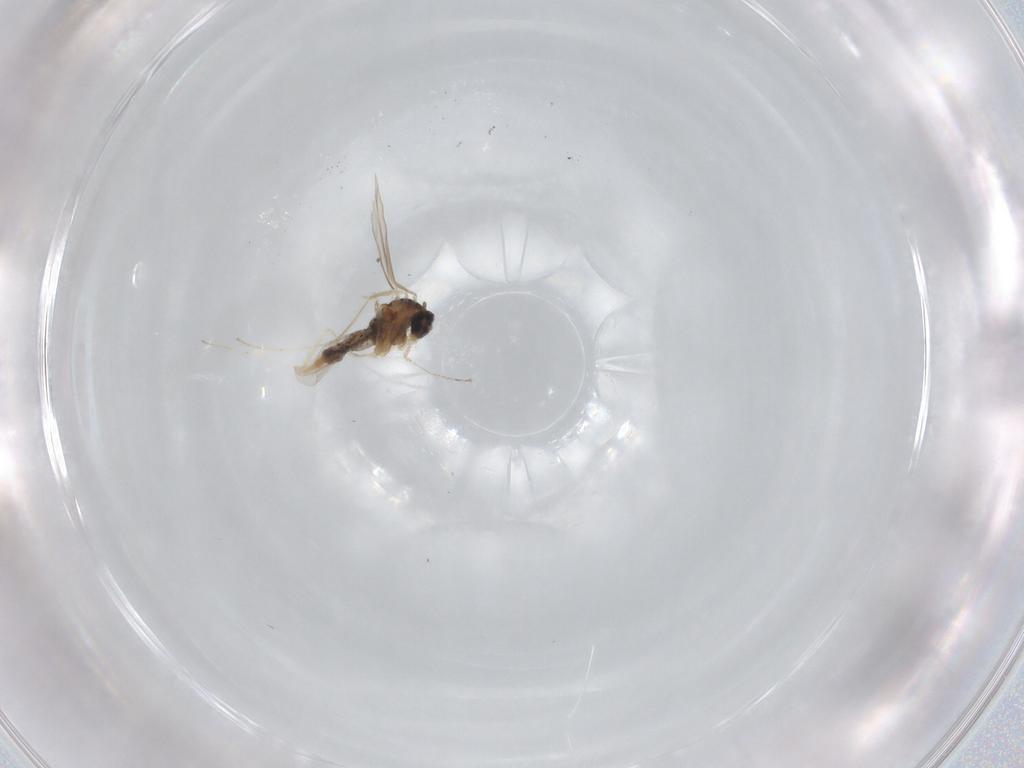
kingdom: Animalia
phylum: Arthropoda
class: Insecta
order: Diptera
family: Cecidomyiidae
